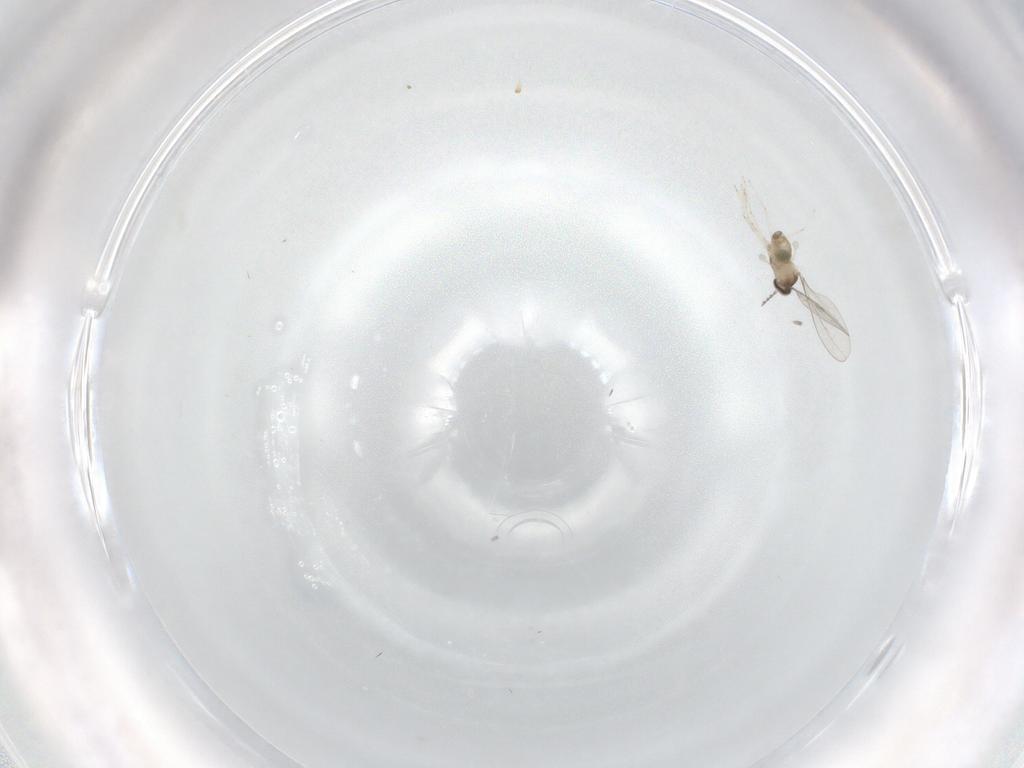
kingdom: Animalia
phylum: Arthropoda
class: Insecta
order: Diptera
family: Cecidomyiidae
